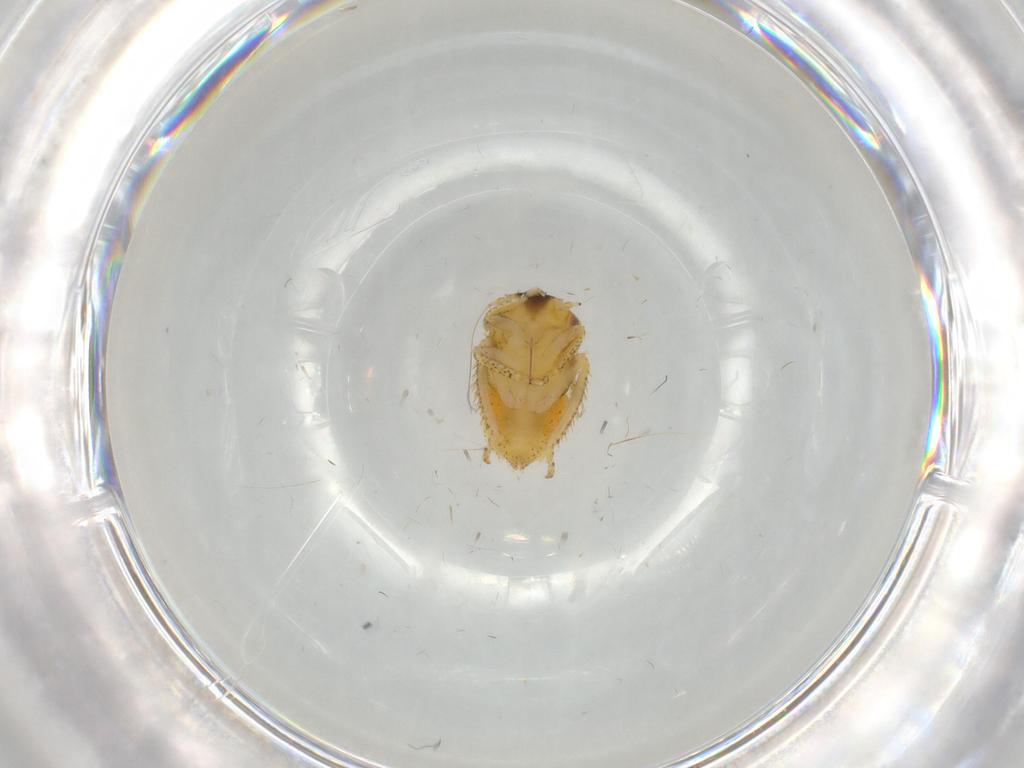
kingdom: Animalia
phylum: Arthropoda
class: Insecta
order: Hemiptera
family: Cicadellidae
